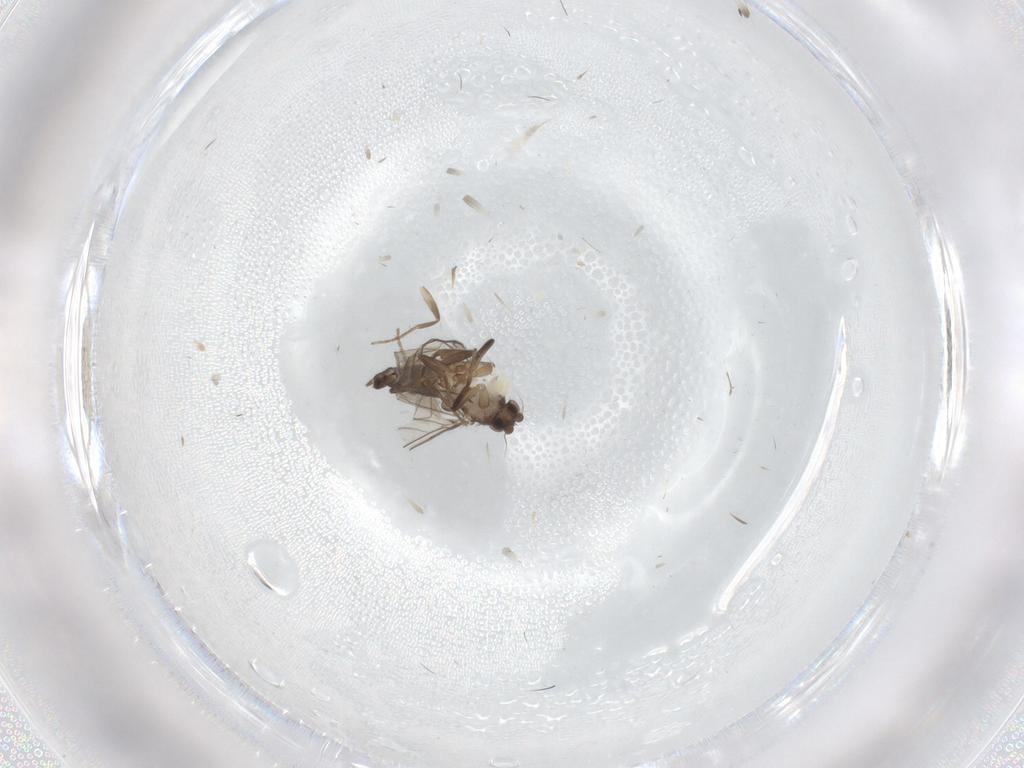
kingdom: Animalia
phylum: Arthropoda
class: Insecta
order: Diptera
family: Phoridae
